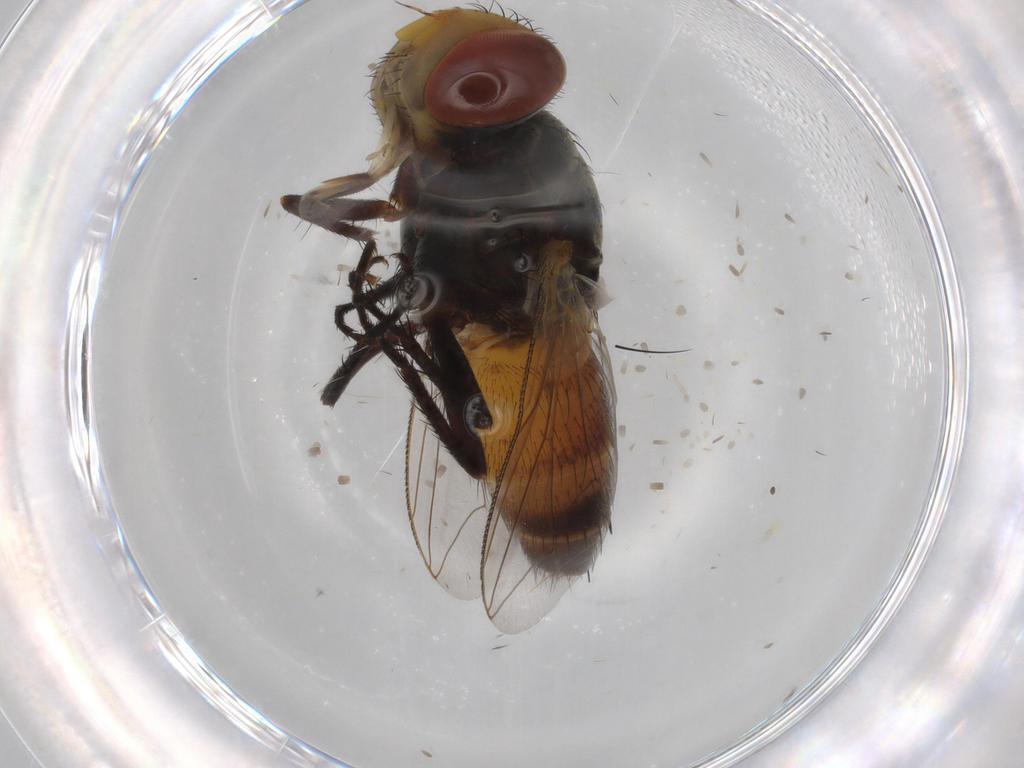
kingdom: Animalia
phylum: Arthropoda
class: Insecta
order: Diptera
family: Sarcophagidae
